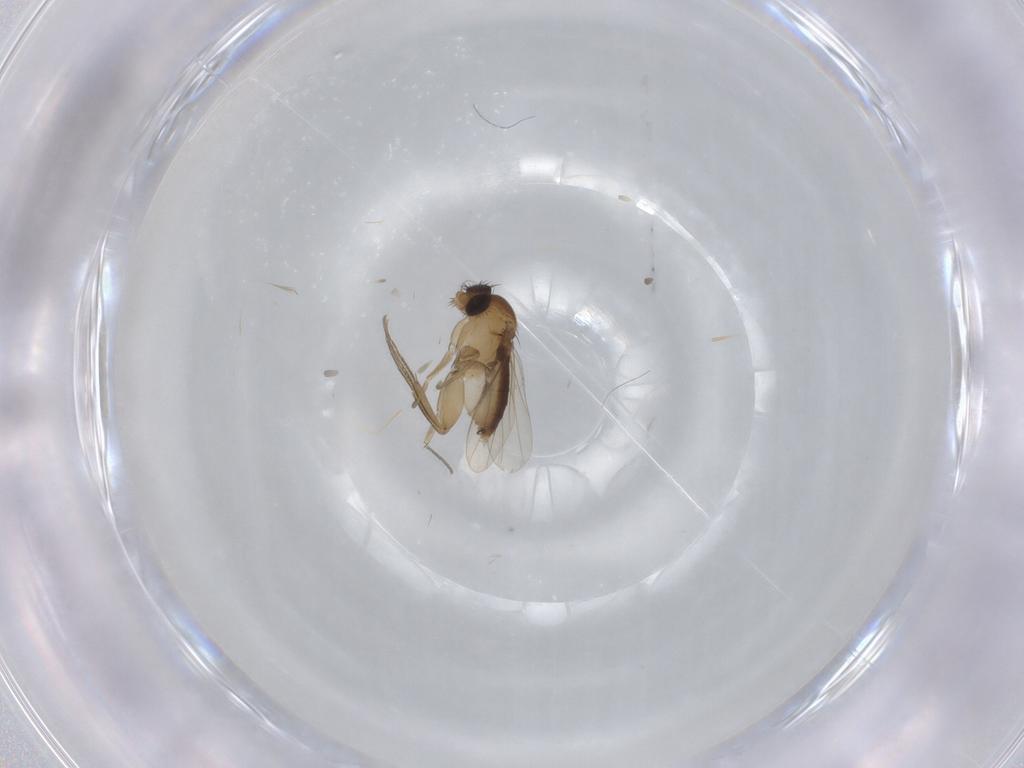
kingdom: Animalia
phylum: Arthropoda
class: Insecta
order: Diptera
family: Phoridae
